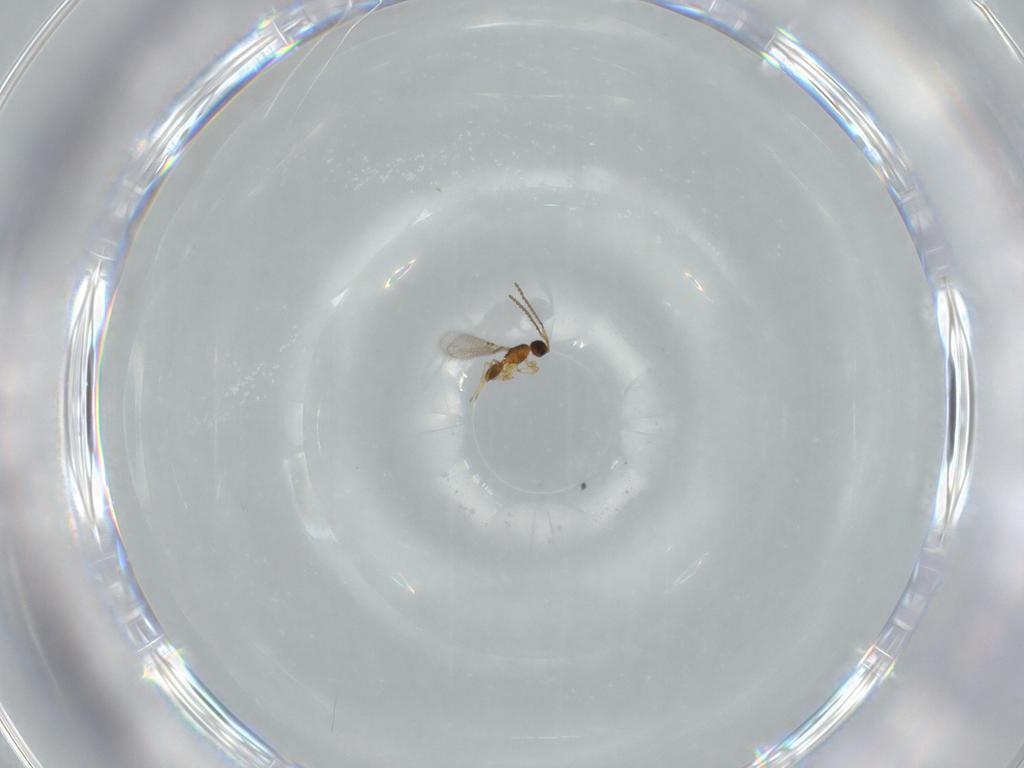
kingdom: Animalia
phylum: Arthropoda
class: Insecta
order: Hymenoptera
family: Diapriidae
